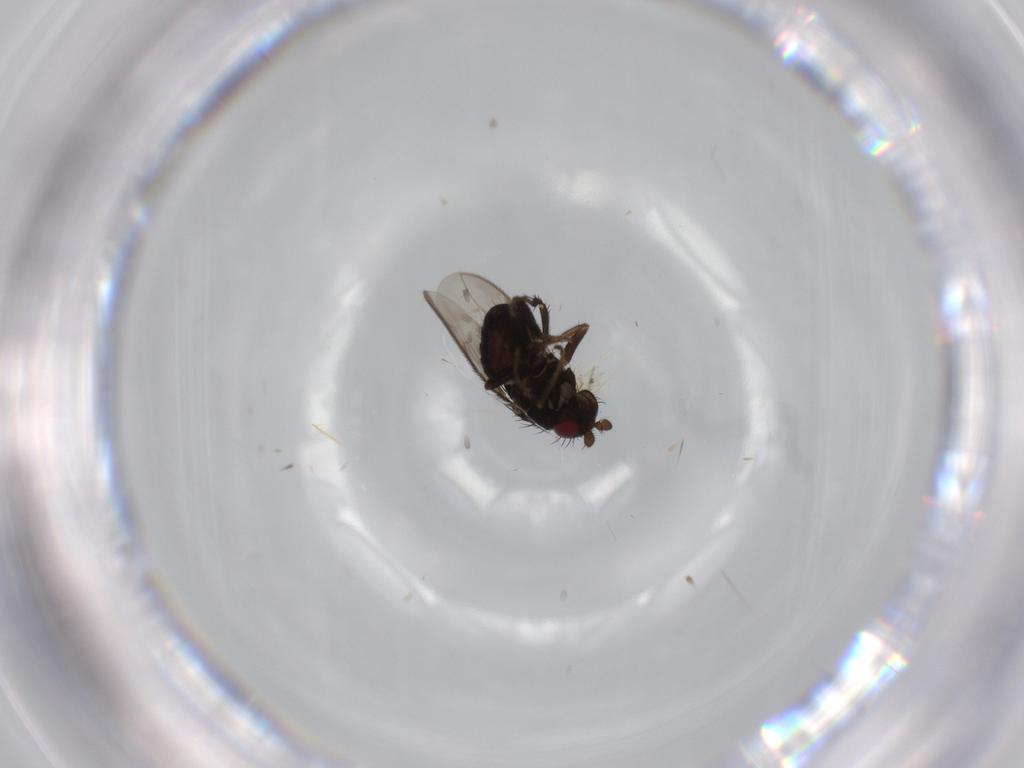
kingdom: Animalia
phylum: Arthropoda
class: Insecta
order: Diptera
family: Sphaeroceridae
